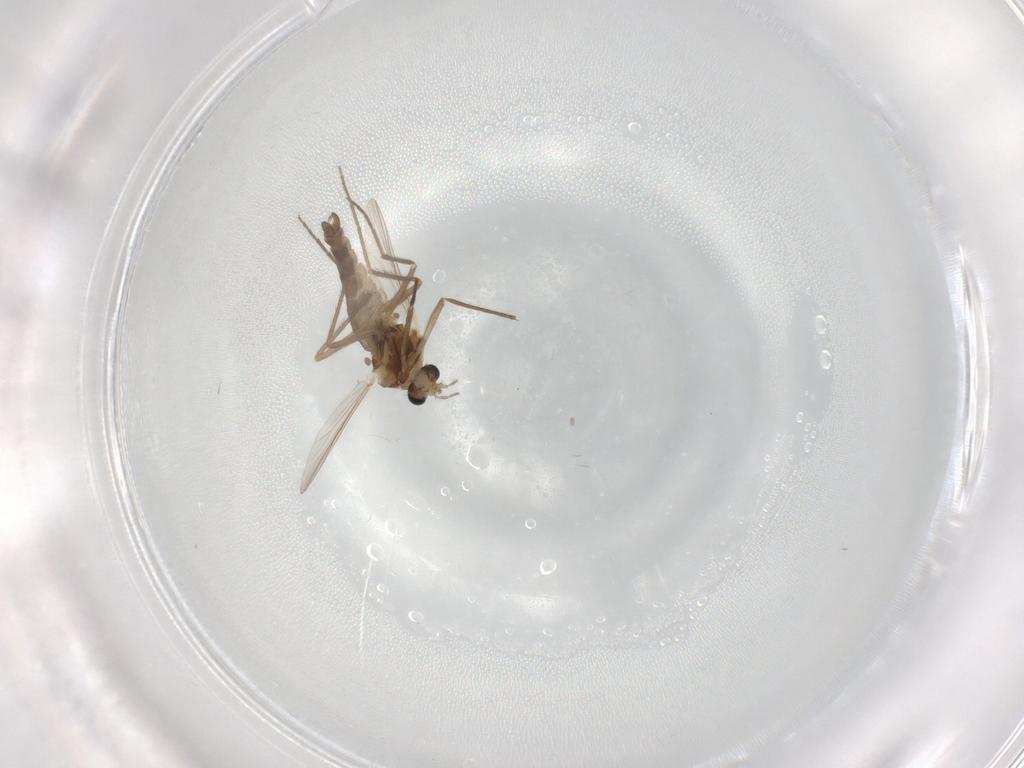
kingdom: Animalia
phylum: Arthropoda
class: Insecta
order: Diptera
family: Chironomidae
